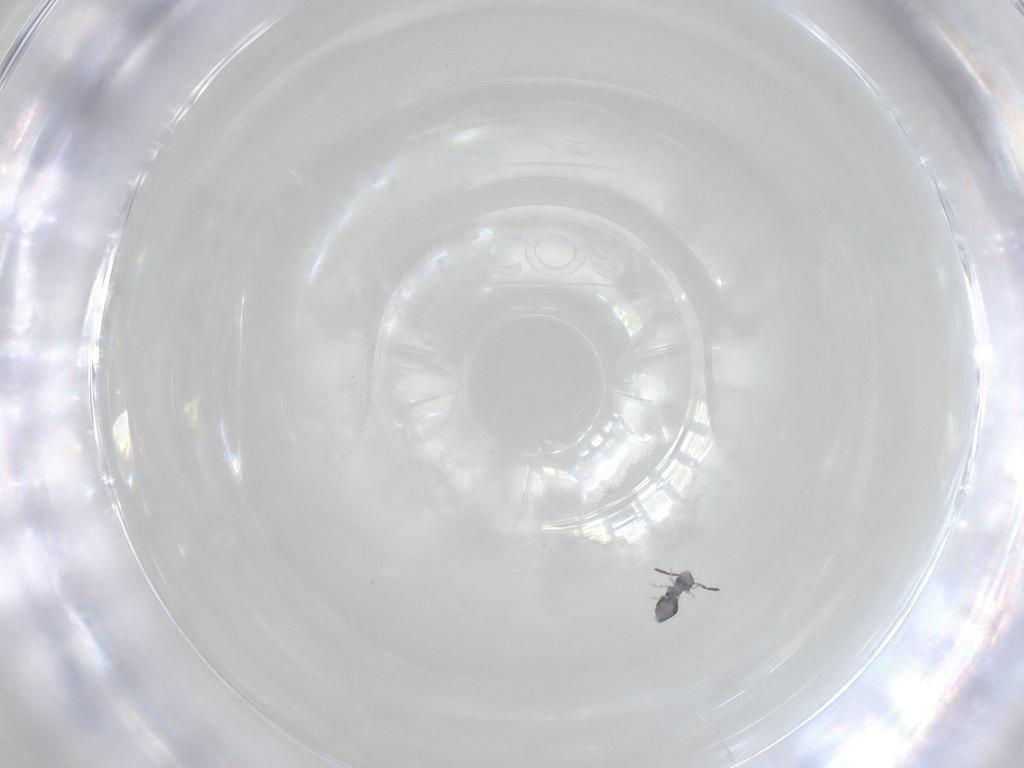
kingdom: Animalia
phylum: Arthropoda
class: Collembola
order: Symphypleona
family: Katiannidae
